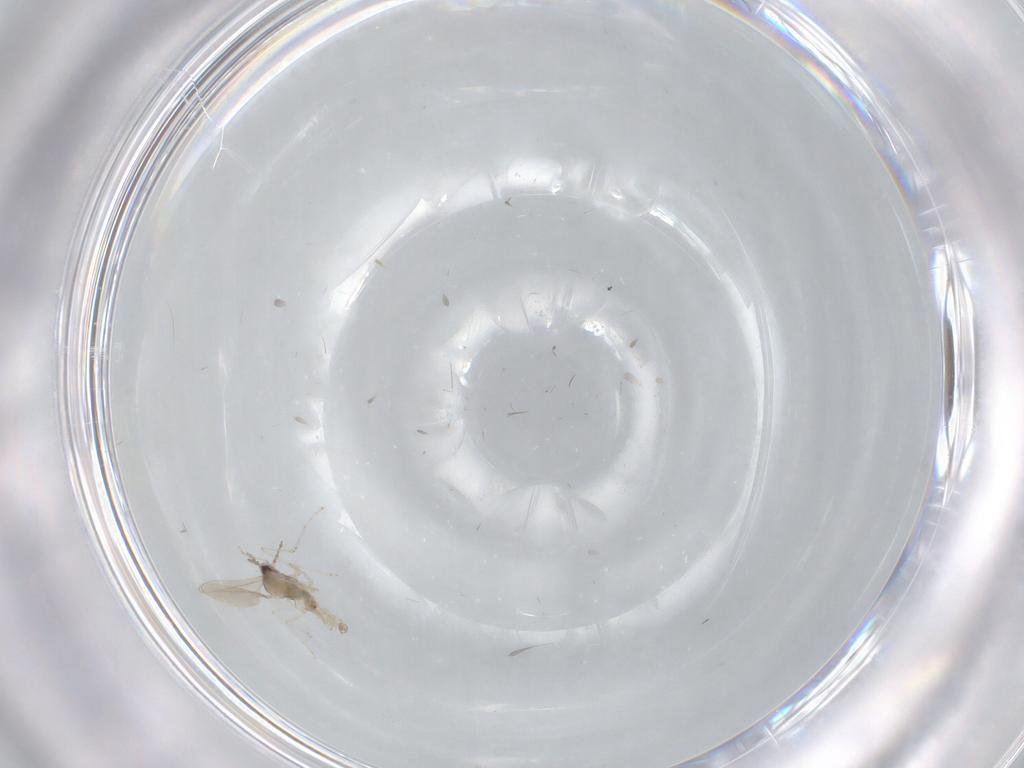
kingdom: Animalia
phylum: Arthropoda
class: Insecta
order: Diptera
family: Cecidomyiidae
